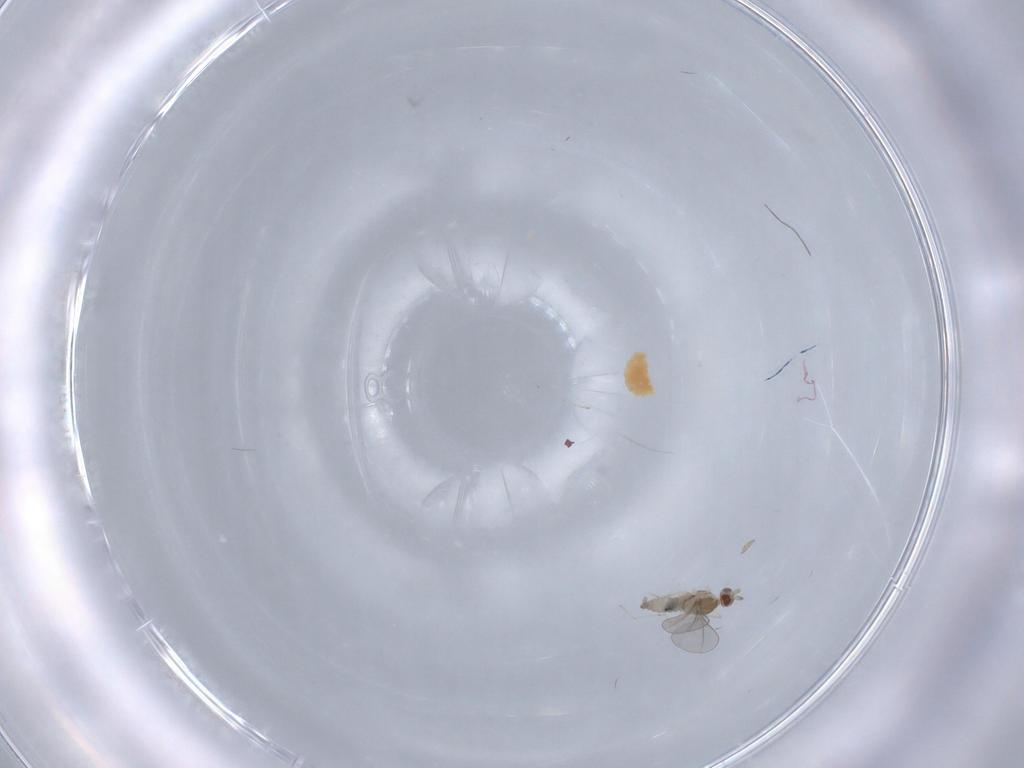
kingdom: Animalia
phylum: Arthropoda
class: Insecta
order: Diptera
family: Cecidomyiidae
